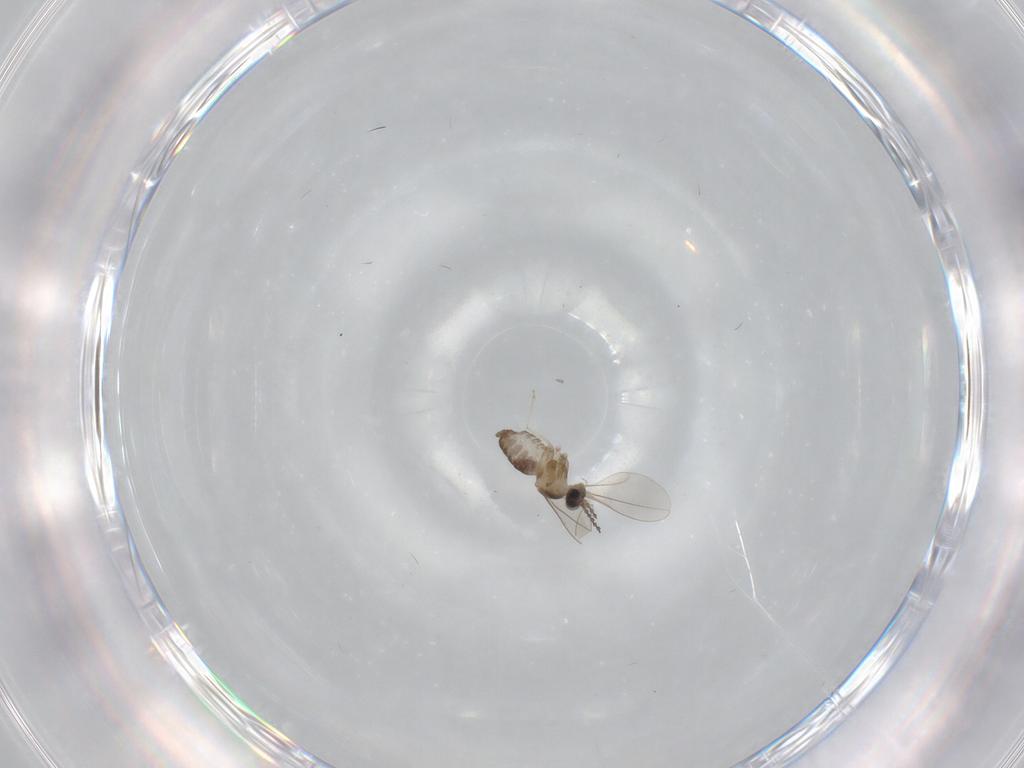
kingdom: Animalia
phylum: Arthropoda
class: Insecta
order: Diptera
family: Cecidomyiidae
